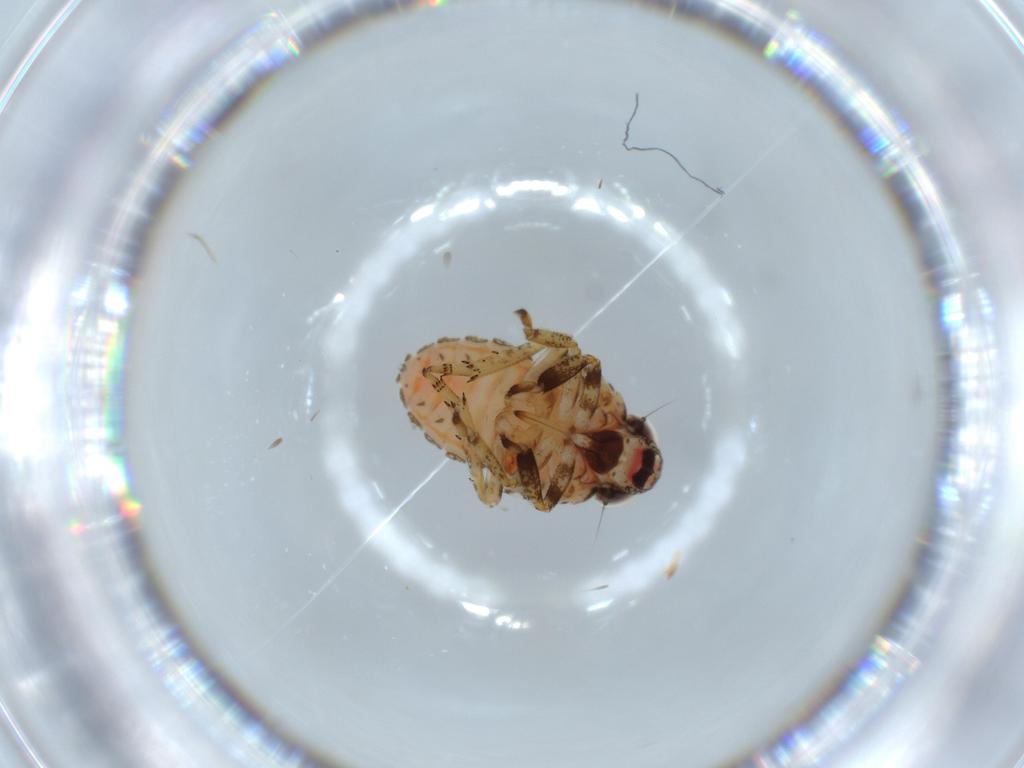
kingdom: Animalia
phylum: Arthropoda
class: Insecta
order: Hemiptera
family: Issidae
